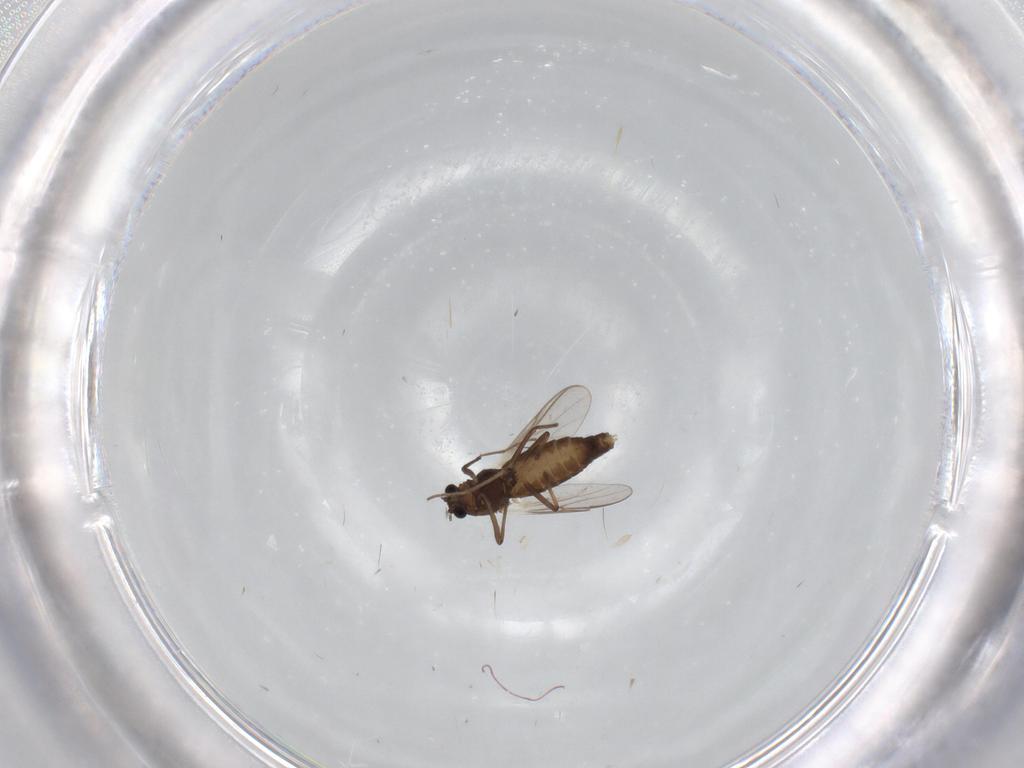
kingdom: Animalia
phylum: Arthropoda
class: Insecta
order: Diptera
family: Chironomidae
